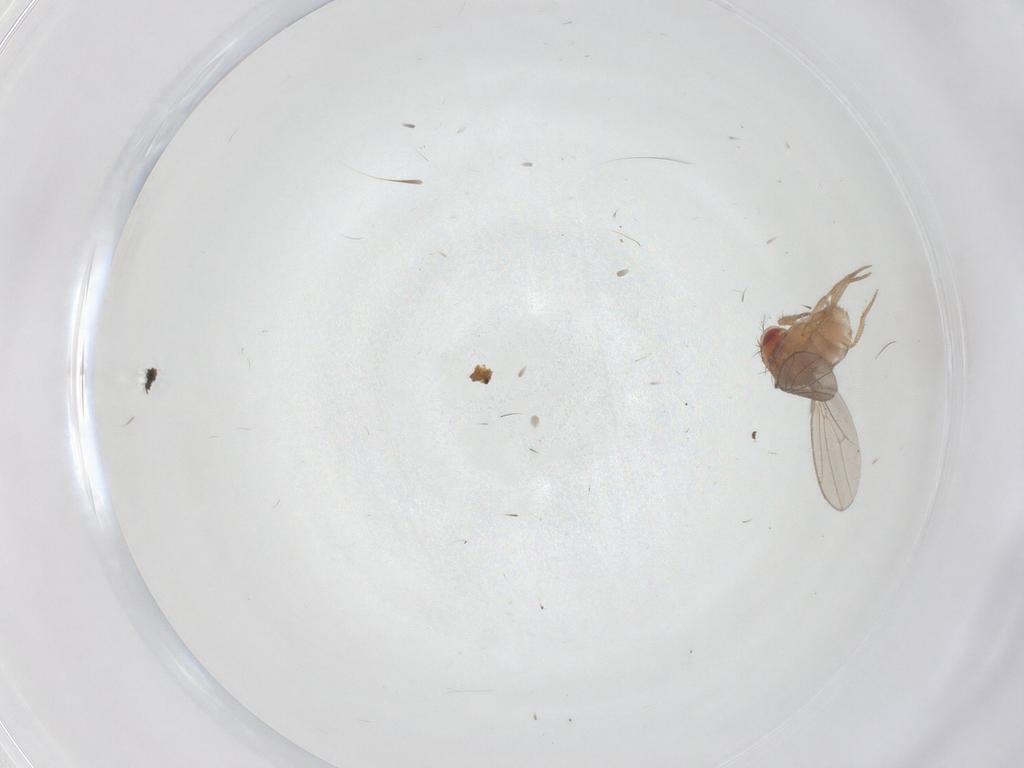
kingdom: Animalia
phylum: Arthropoda
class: Insecta
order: Diptera
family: Drosophilidae
